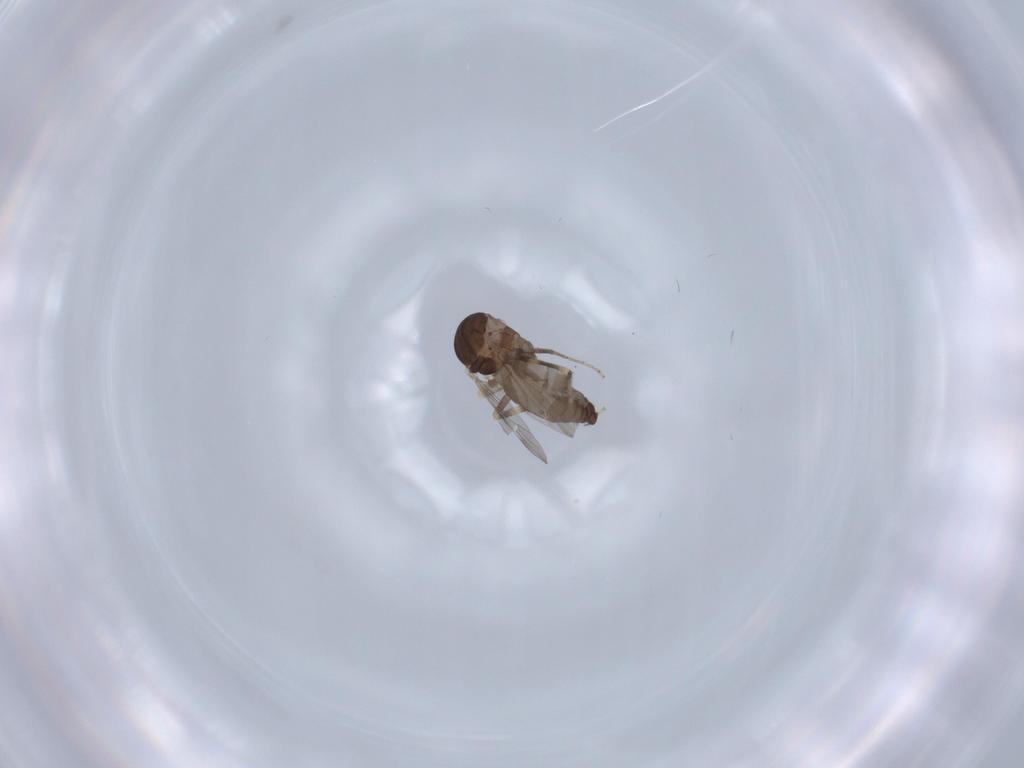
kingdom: Animalia
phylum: Arthropoda
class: Insecta
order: Diptera
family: Ceratopogonidae
